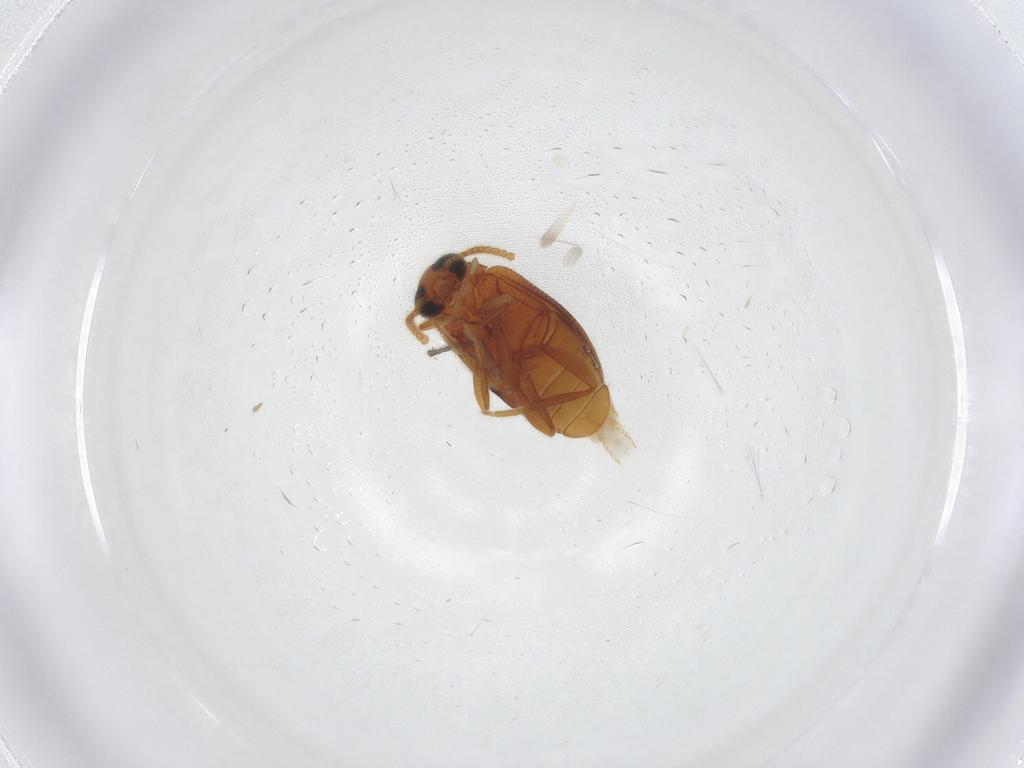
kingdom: Animalia
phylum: Arthropoda
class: Insecta
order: Coleoptera
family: Aderidae
